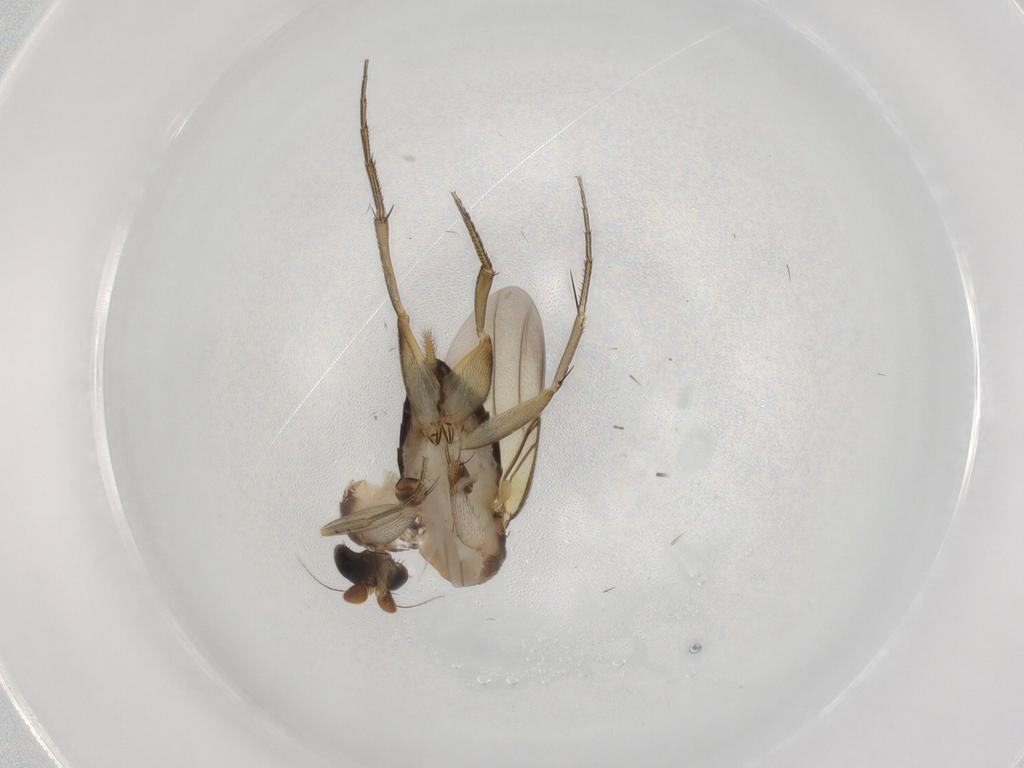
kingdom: Animalia
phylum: Arthropoda
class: Insecta
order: Diptera
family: Phoridae
